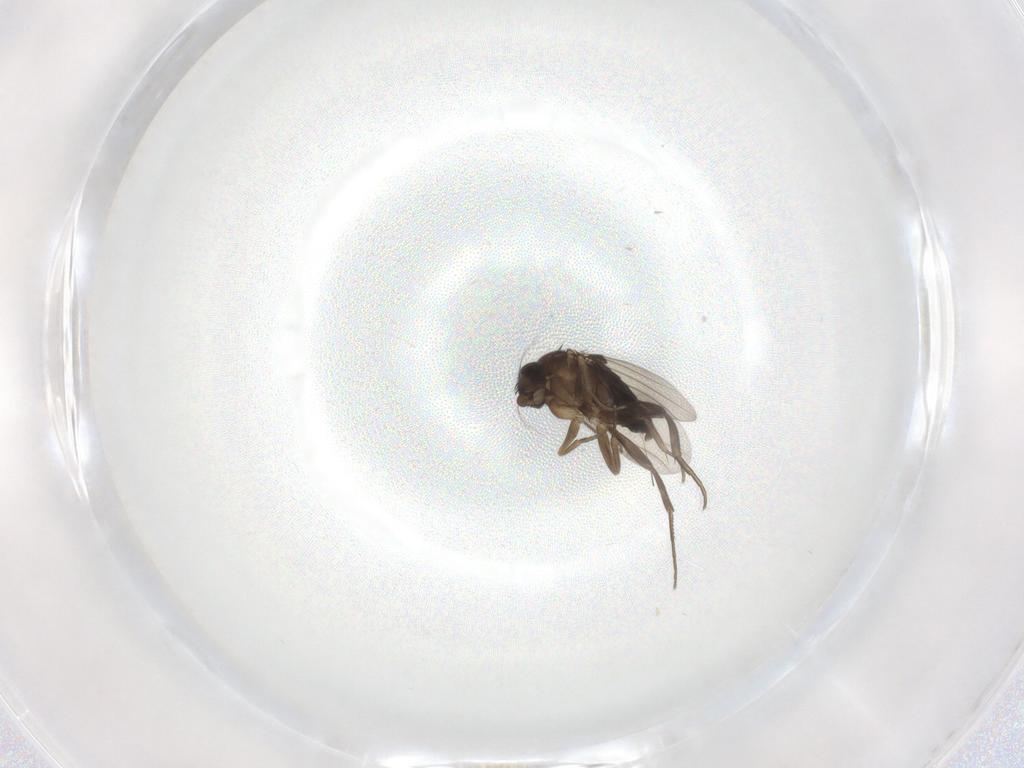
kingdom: Animalia
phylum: Arthropoda
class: Insecta
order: Diptera
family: Phoridae
